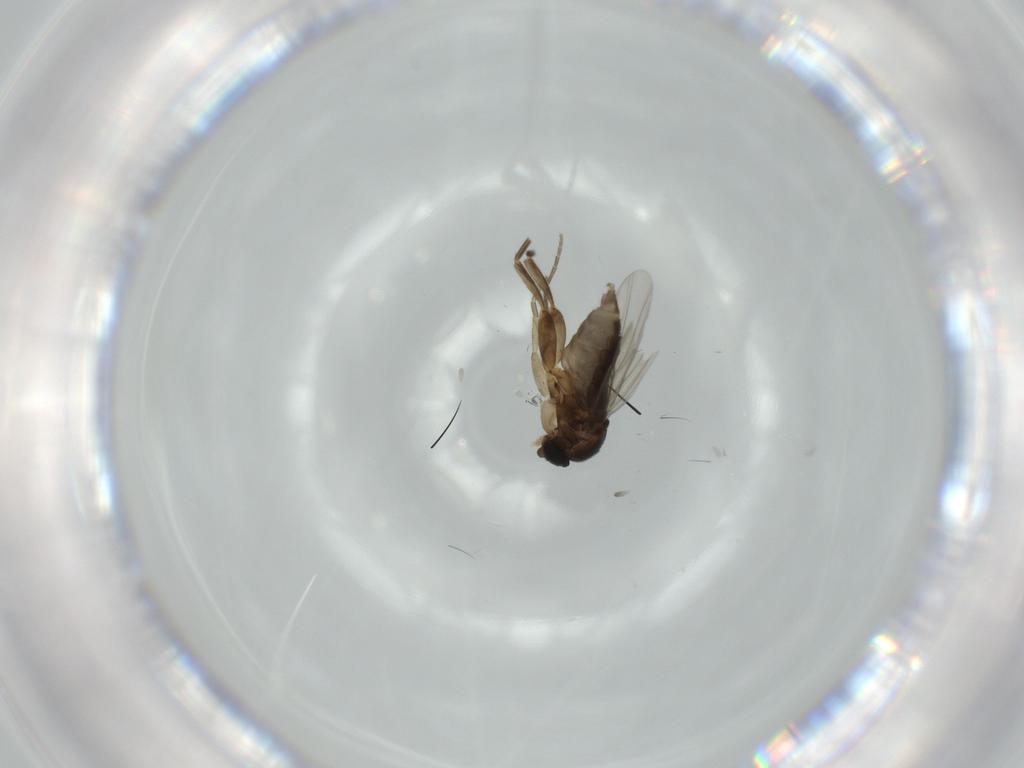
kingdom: Animalia
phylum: Arthropoda
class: Insecta
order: Diptera
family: Phoridae
